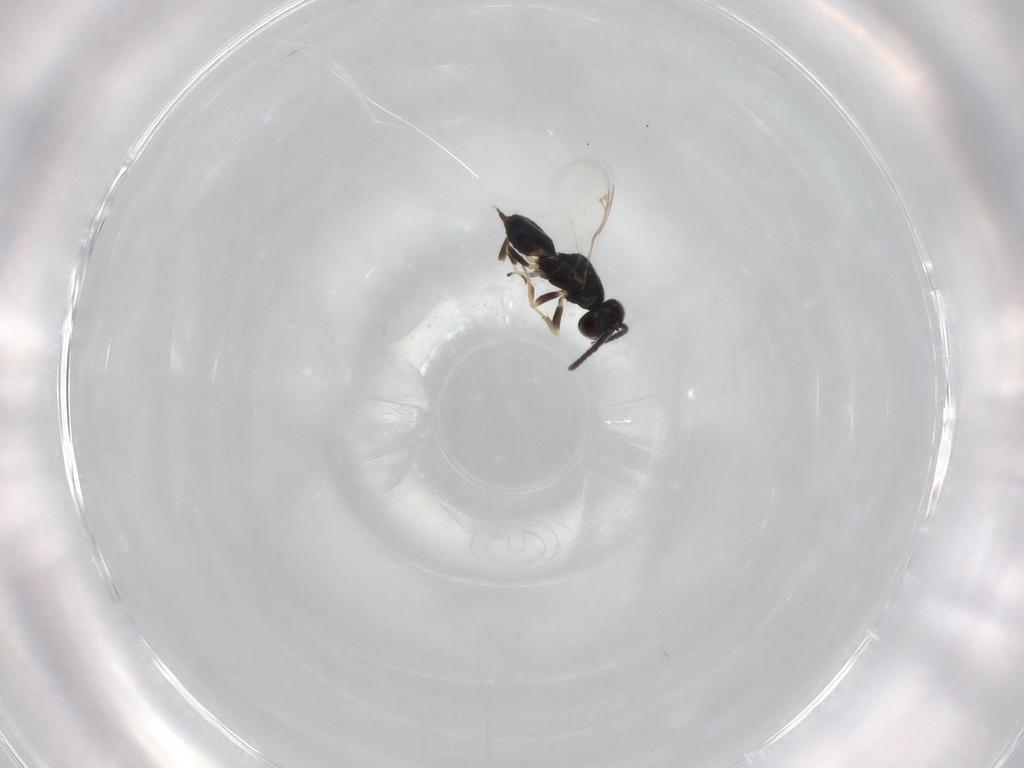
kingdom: Animalia
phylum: Arthropoda
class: Insecta
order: Hymenoptera
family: Eupelmidae
